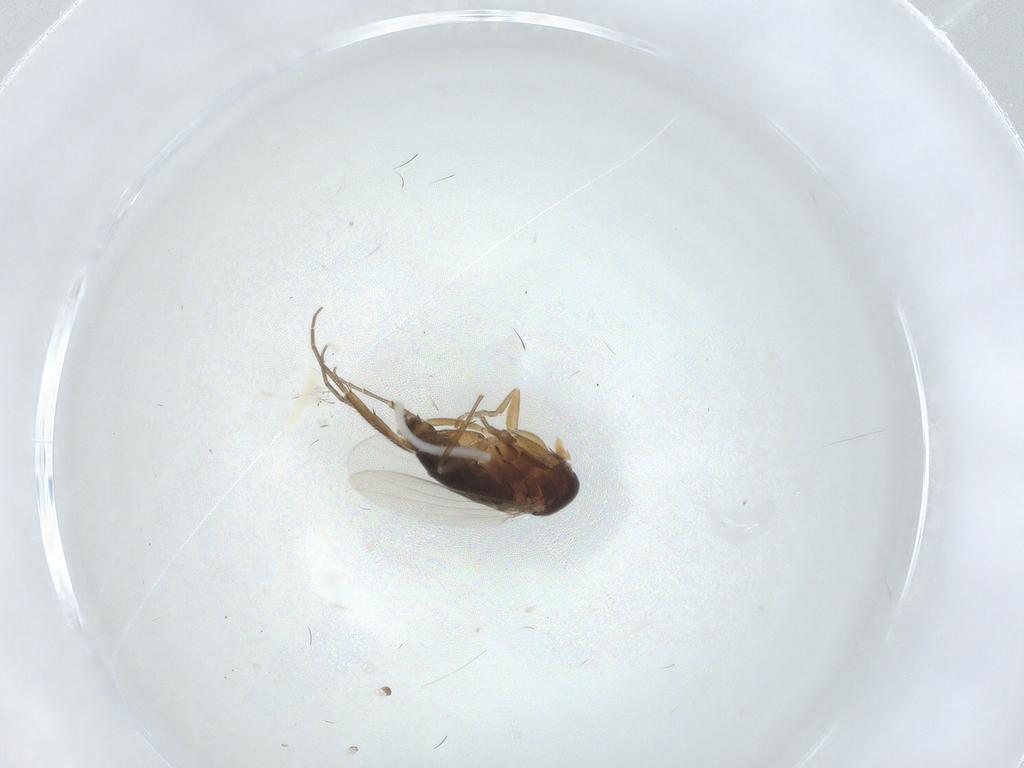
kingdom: Animalia
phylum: Arthropoda
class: Insecta
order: Diptera
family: Phoridae
